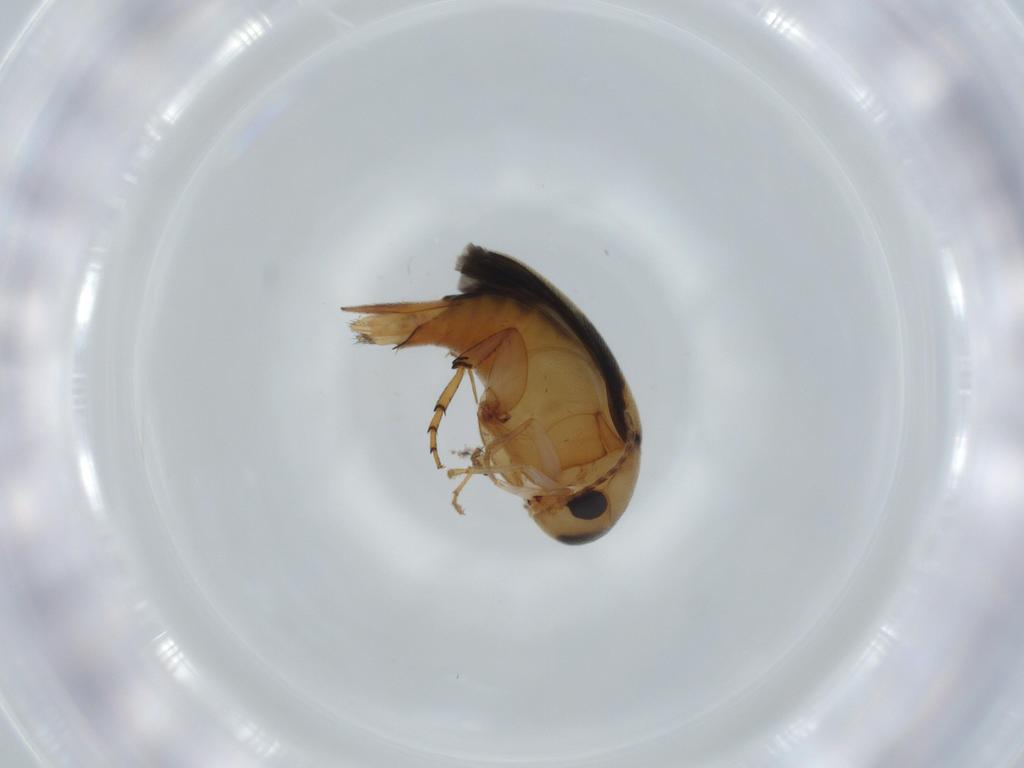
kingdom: Animalia
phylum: Arthropoda
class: Insecta
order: Coleoptera
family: Mordellidae
